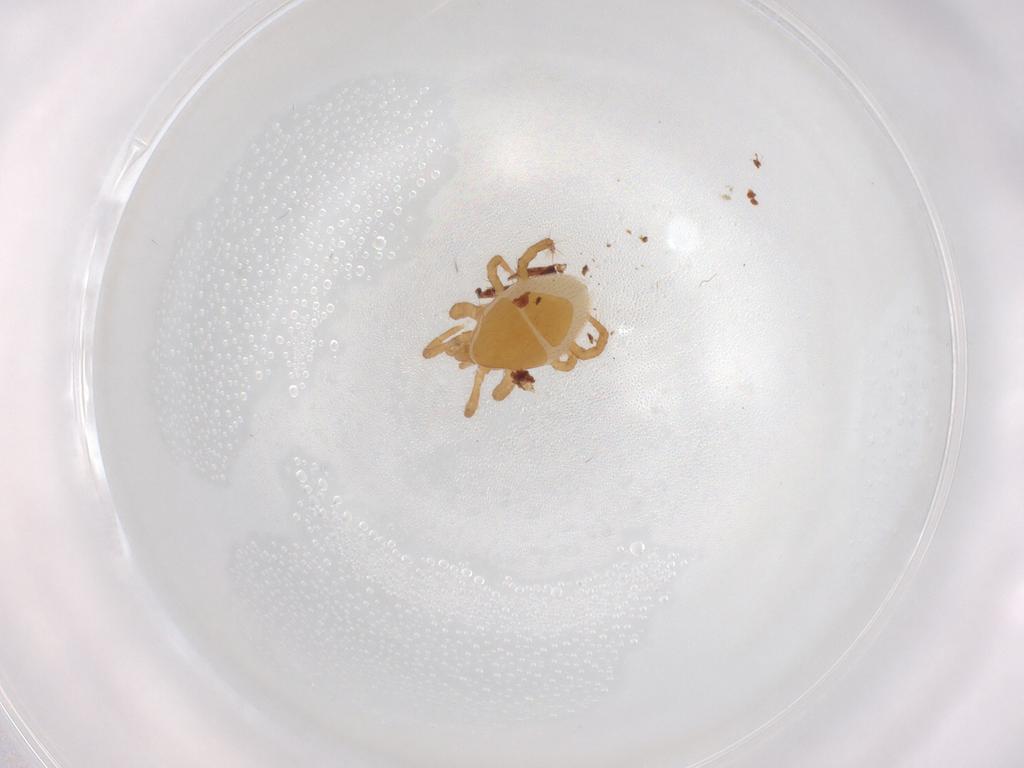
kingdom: Animalia
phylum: Arthropoda
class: Arachnida
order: Trombidiformes
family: Tetranychidae
